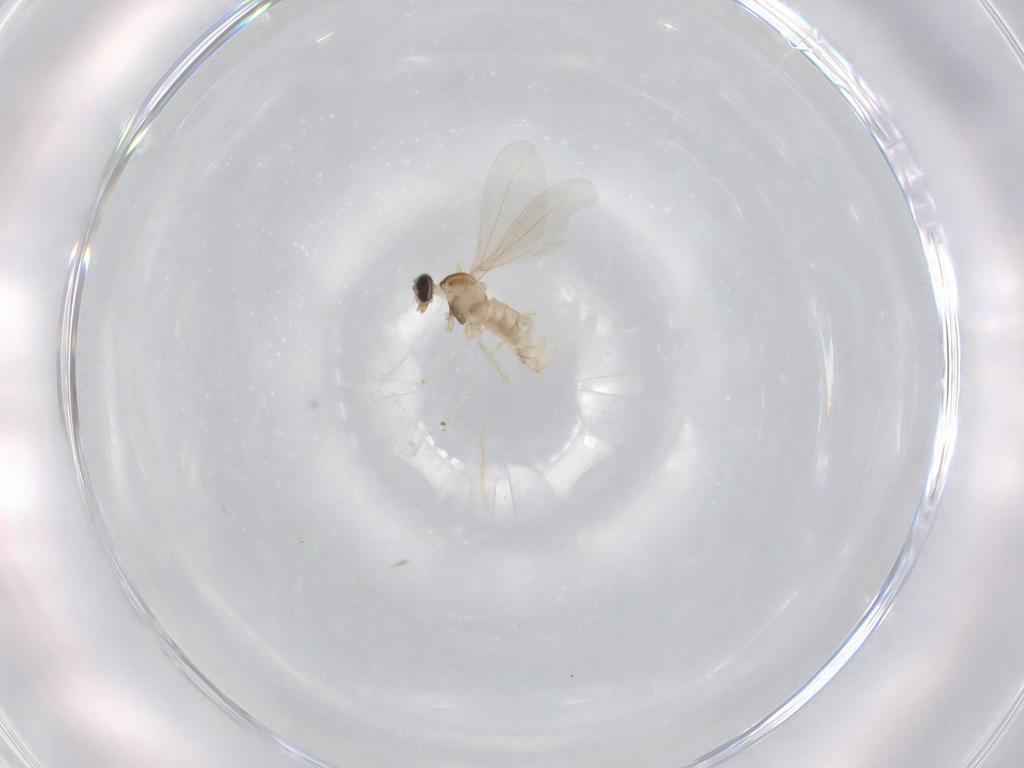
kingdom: Animalia
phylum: Arthropoda
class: Insecta
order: Diptera
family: Cecidomyiidae
